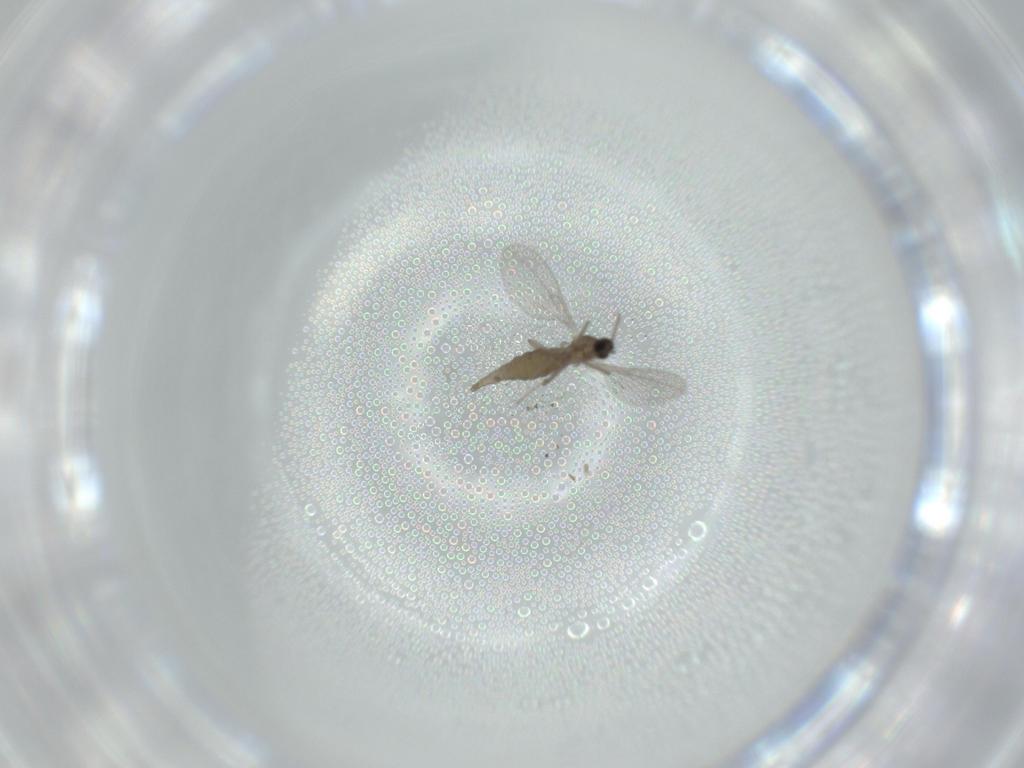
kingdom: Animalia
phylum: Arthropoda
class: Insecta
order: Diptera
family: Cecidomyiidae
